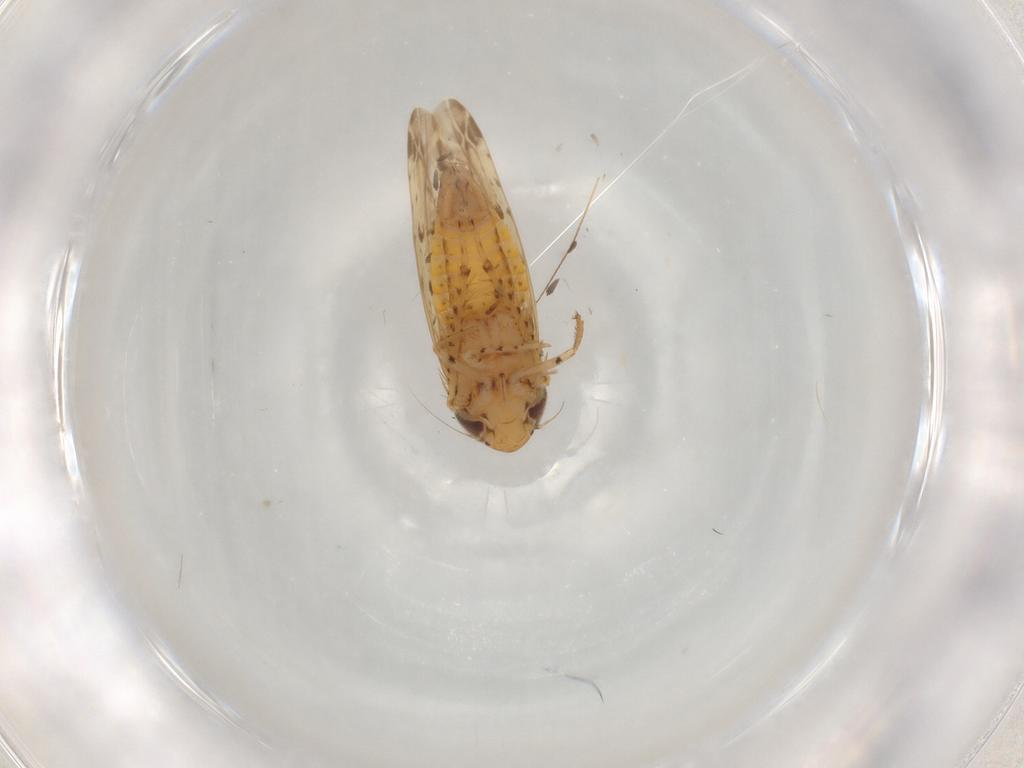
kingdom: Animalia
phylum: Arthropoda
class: Insecta
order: Hemiptera
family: Cicadellidae
